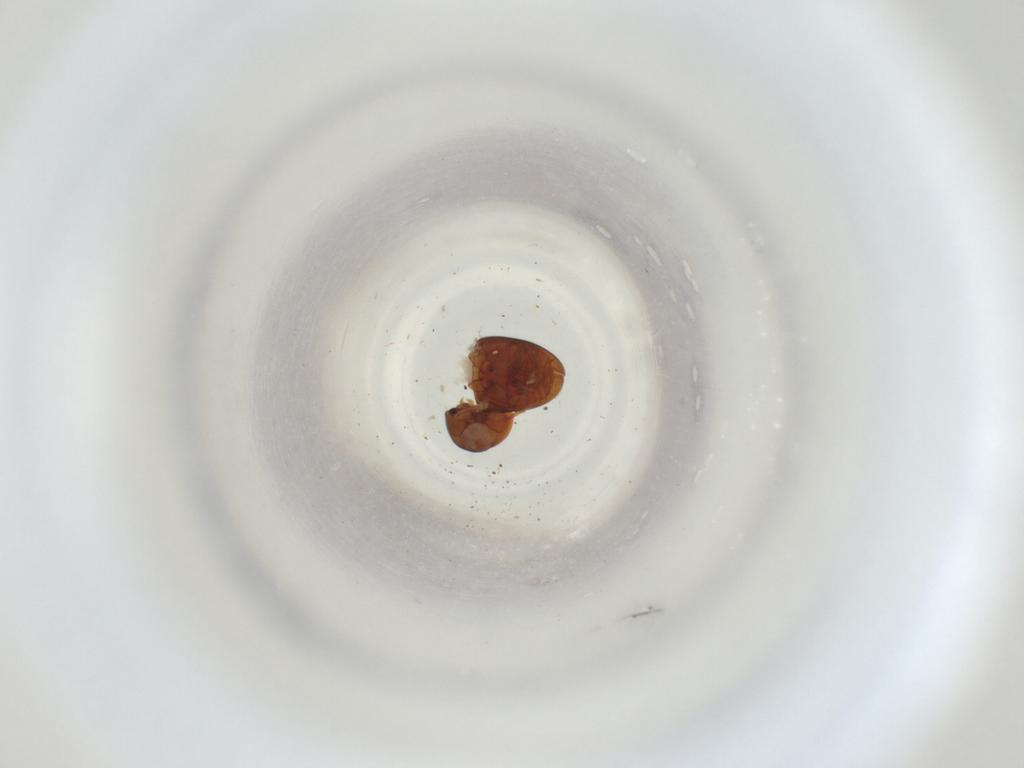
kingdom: Animalia
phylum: Arthropoda
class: Insecta
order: Coleoptera
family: Phalacridae
